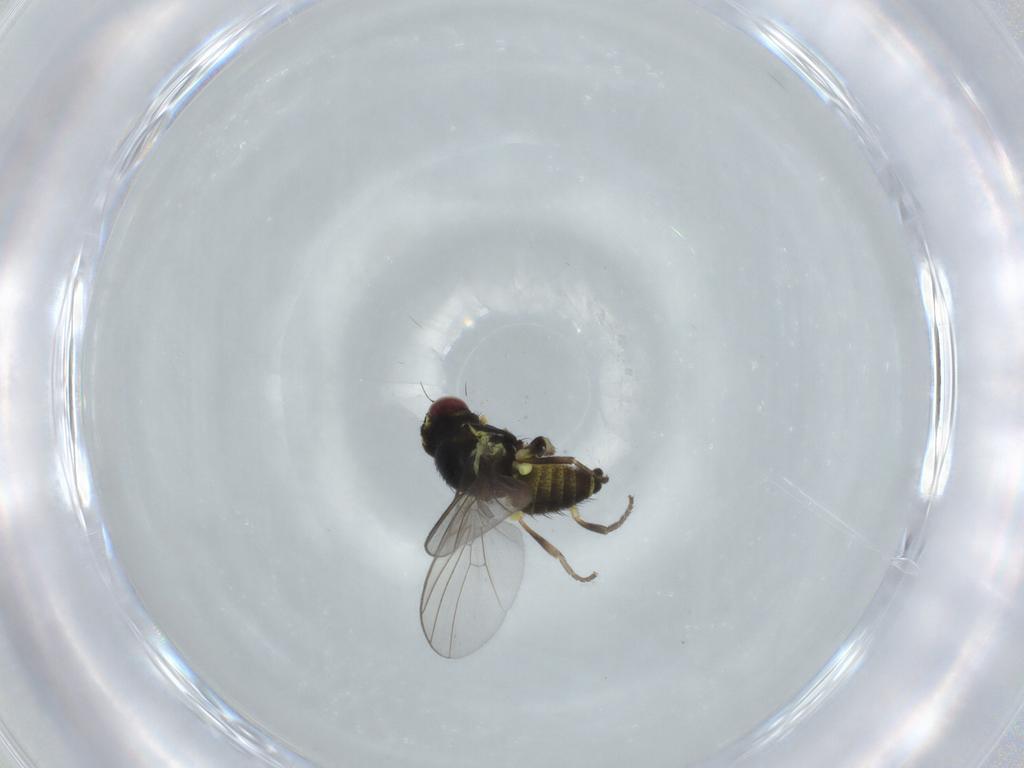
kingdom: Animalia
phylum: Arthropoda
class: Insecta
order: Diptera
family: Agromyzidae
